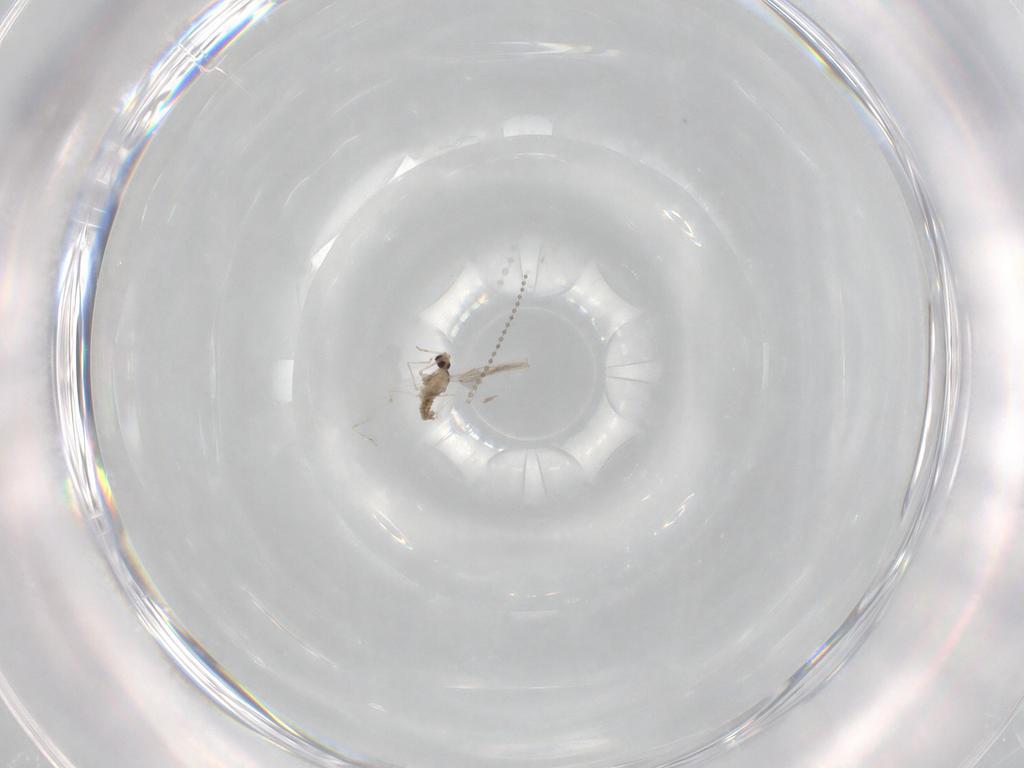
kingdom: Animalia
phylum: Arthropoda
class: Insecta
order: Diptera
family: Cecidomyiidae
